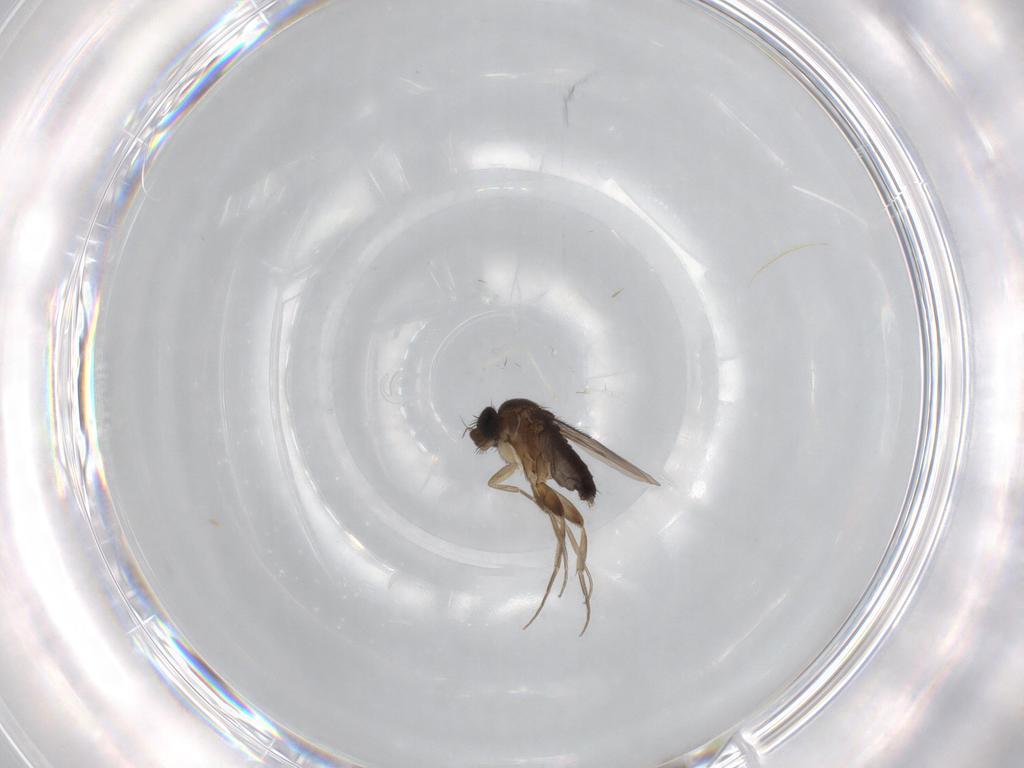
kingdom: Animalia
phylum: Arthropoda
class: Insecta
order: Diptera
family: Phoridae
